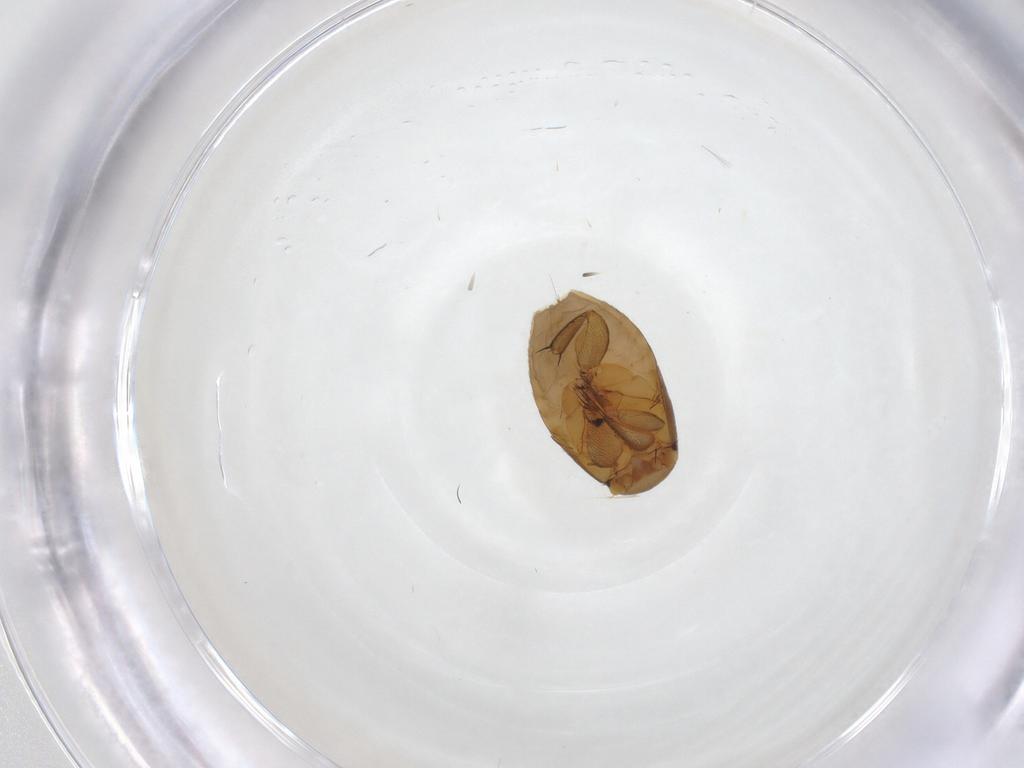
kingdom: Animalia
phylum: Arthropoda
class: Insecta
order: Diptera
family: Phoridae
